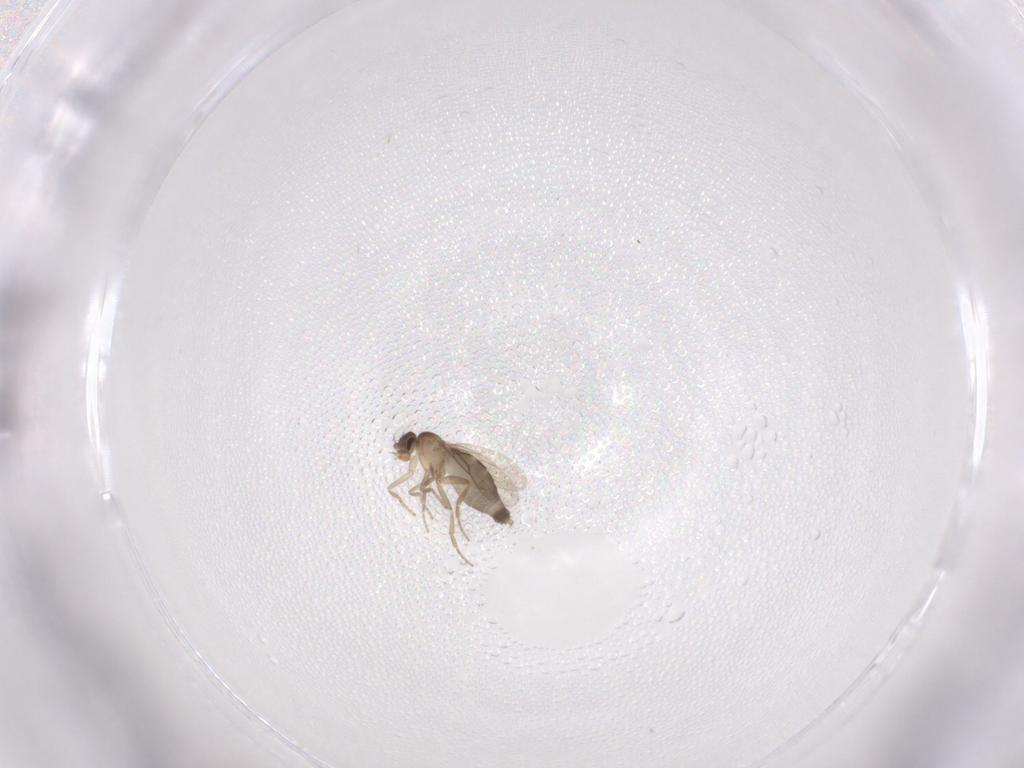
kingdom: Animalia
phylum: Arthropoda
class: Insecta
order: Diptera
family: Phoridae
